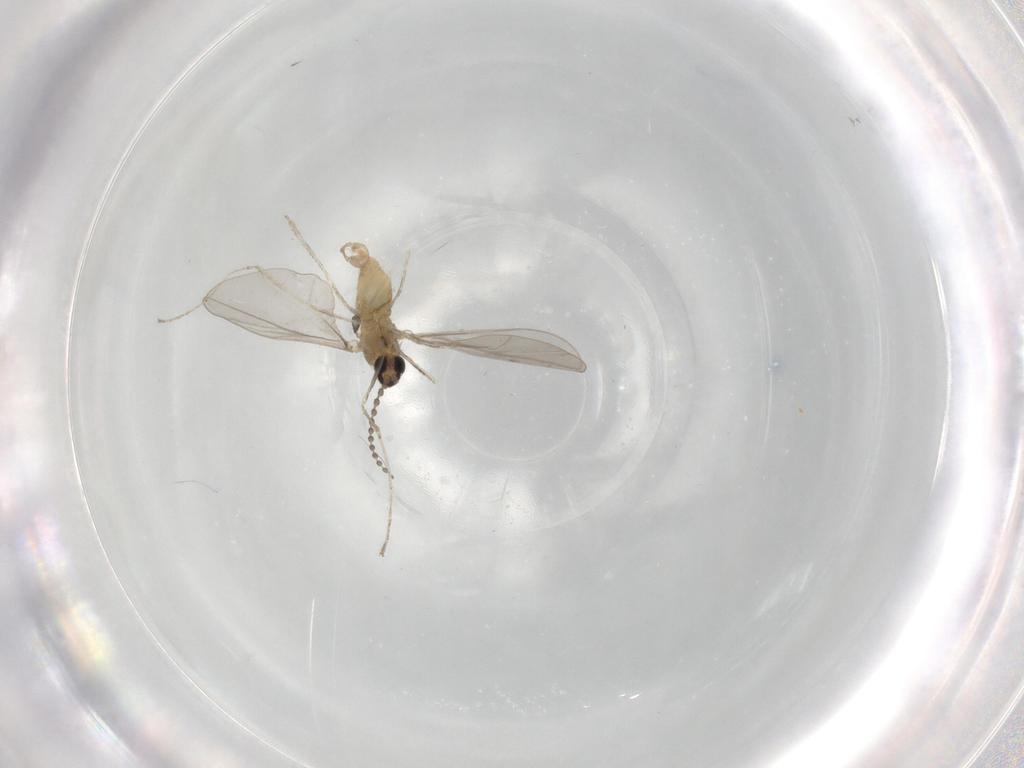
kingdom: Animalia
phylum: Arthropoda
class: Insecta
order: Diptera
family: Cecidomyiidae
